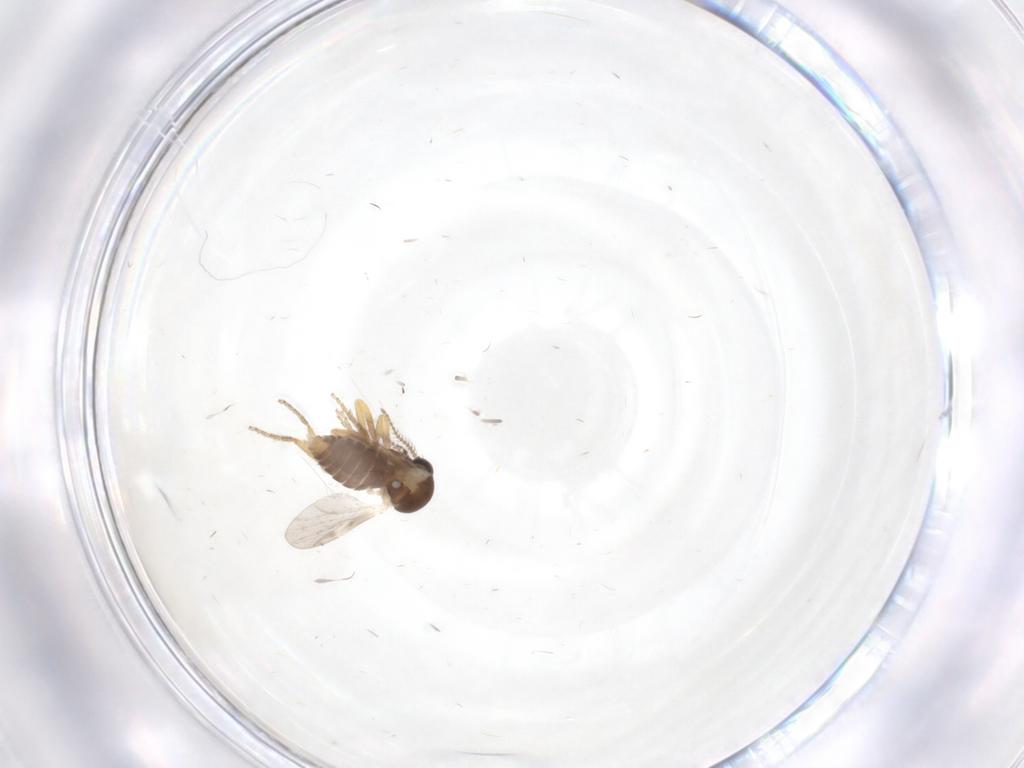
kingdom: Animalia
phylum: Arthropoda
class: Insecta
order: Diptera
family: Ceratopogonidae
